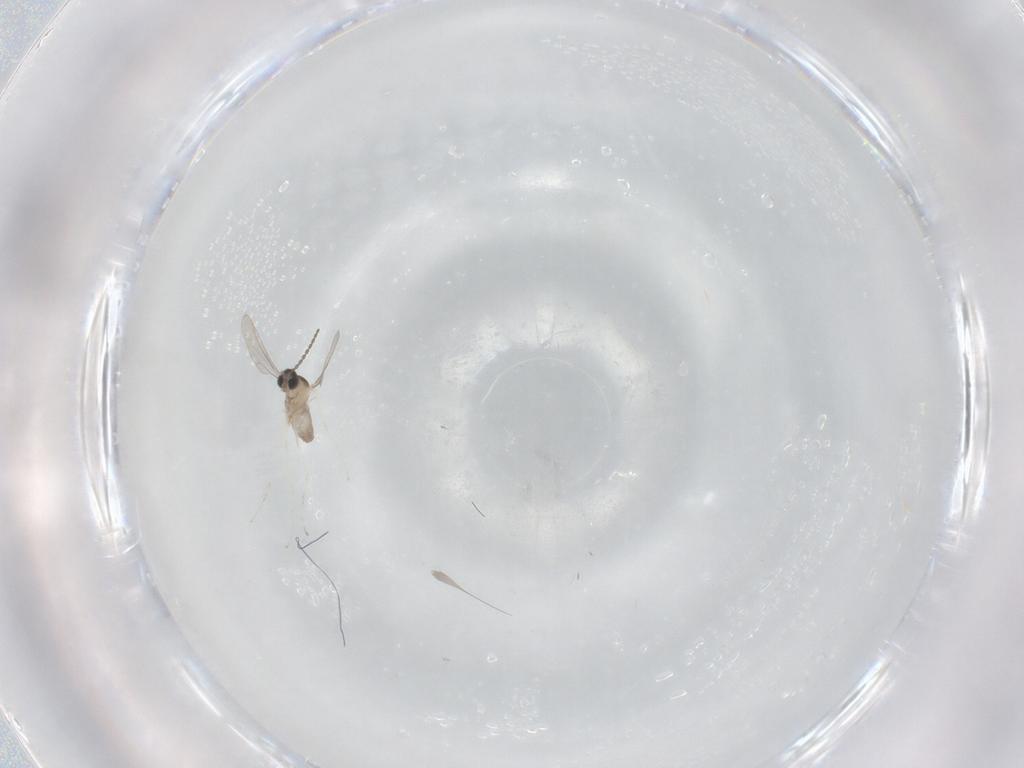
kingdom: Animalia
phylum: Arthropoda
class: Insecta
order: Diptera
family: Cecidomyiidae
